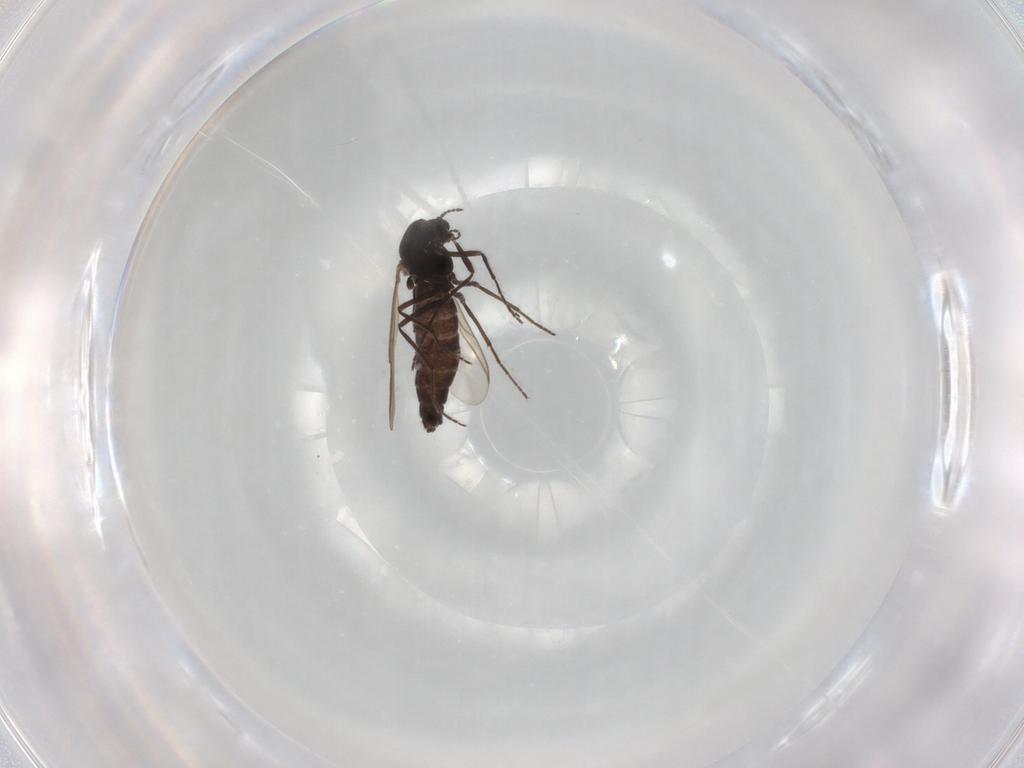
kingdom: Animalia
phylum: Arthropoda
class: Insecta
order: Diptera
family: Chironomidae
